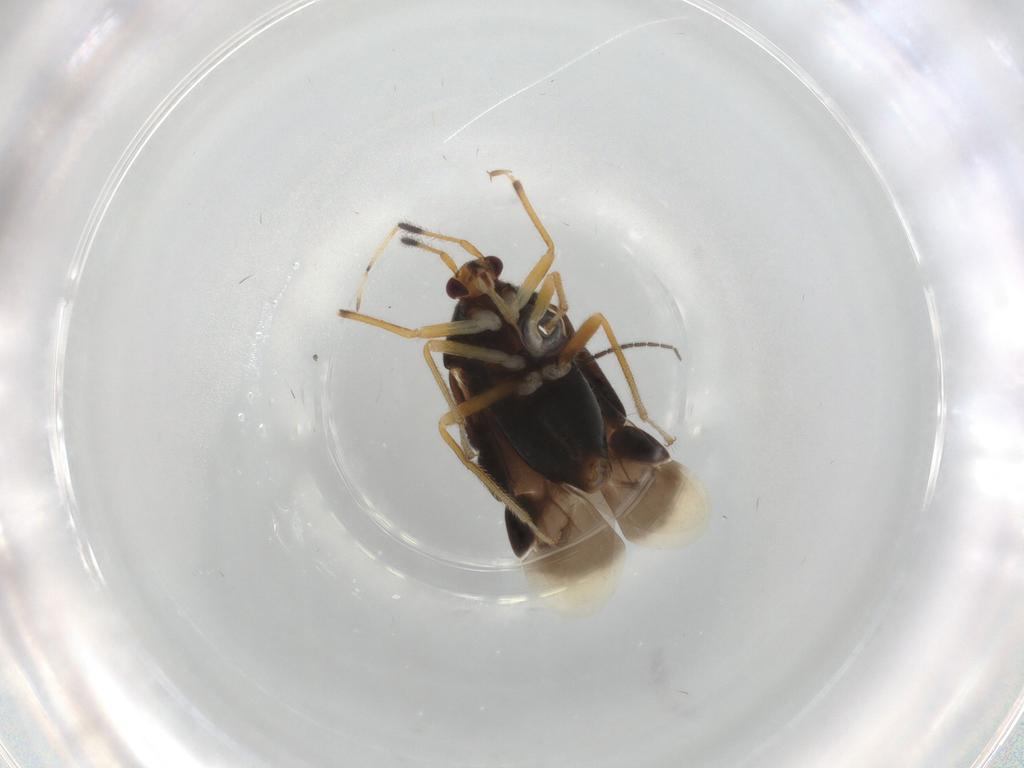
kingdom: Animalia
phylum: Arthropoda
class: Insecta
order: Hemiptera
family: Miridae
